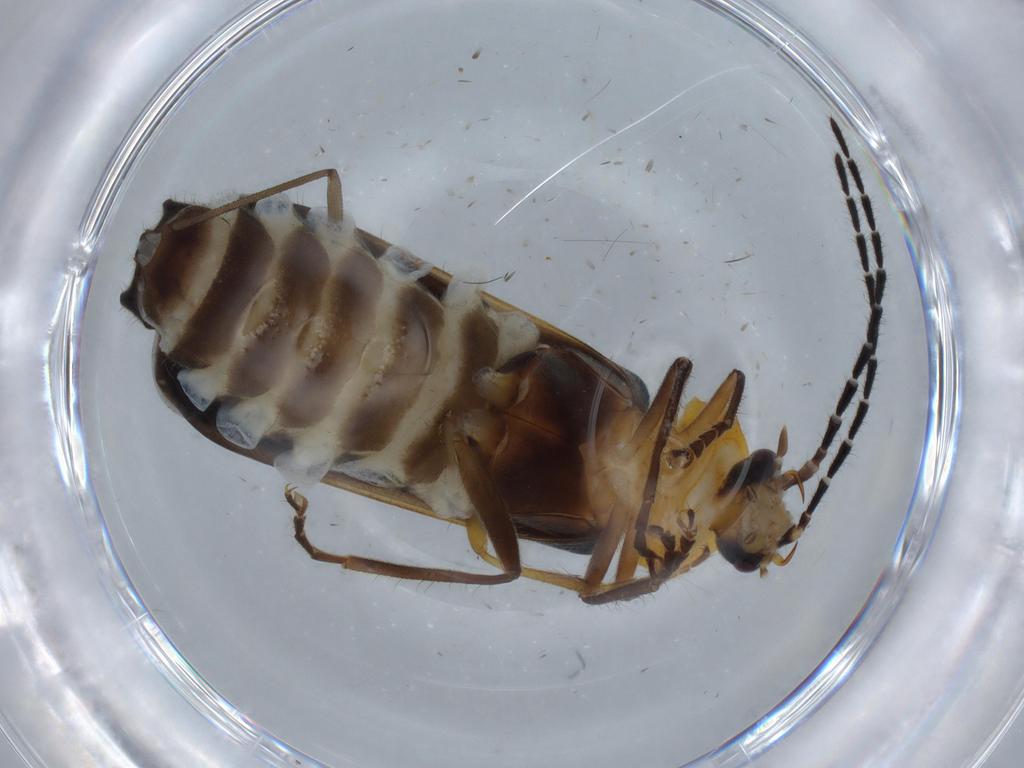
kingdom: Animalia
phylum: Arthropoda
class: Insecta
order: Coleoptera
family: Cantharidae
